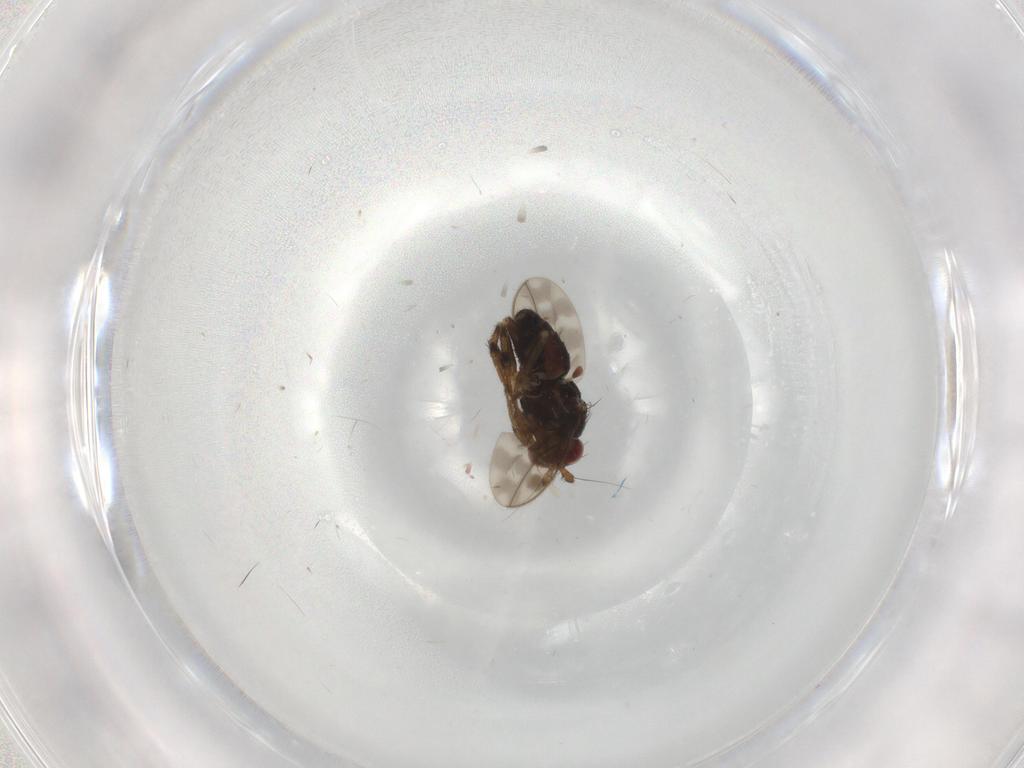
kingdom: Animalia
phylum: Arthropoda
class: Insecta
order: Diptera
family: Sphaeroceridae
